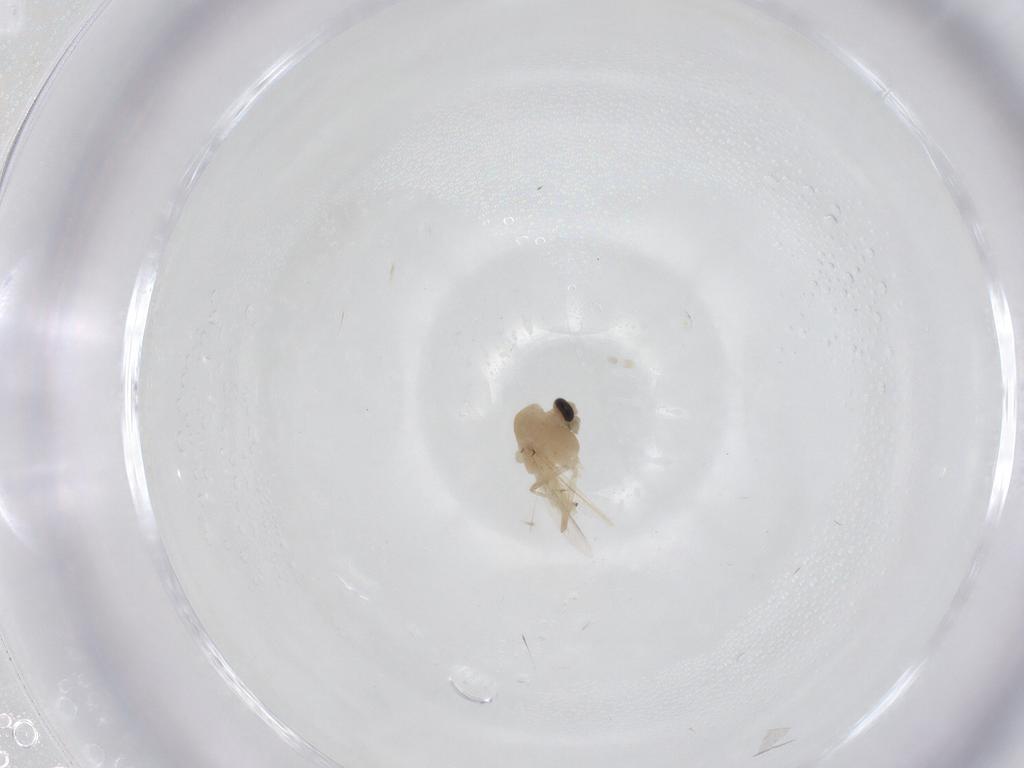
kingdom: Animalia
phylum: Arthropoda
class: Insecta
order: Diptera
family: Chironomidae
